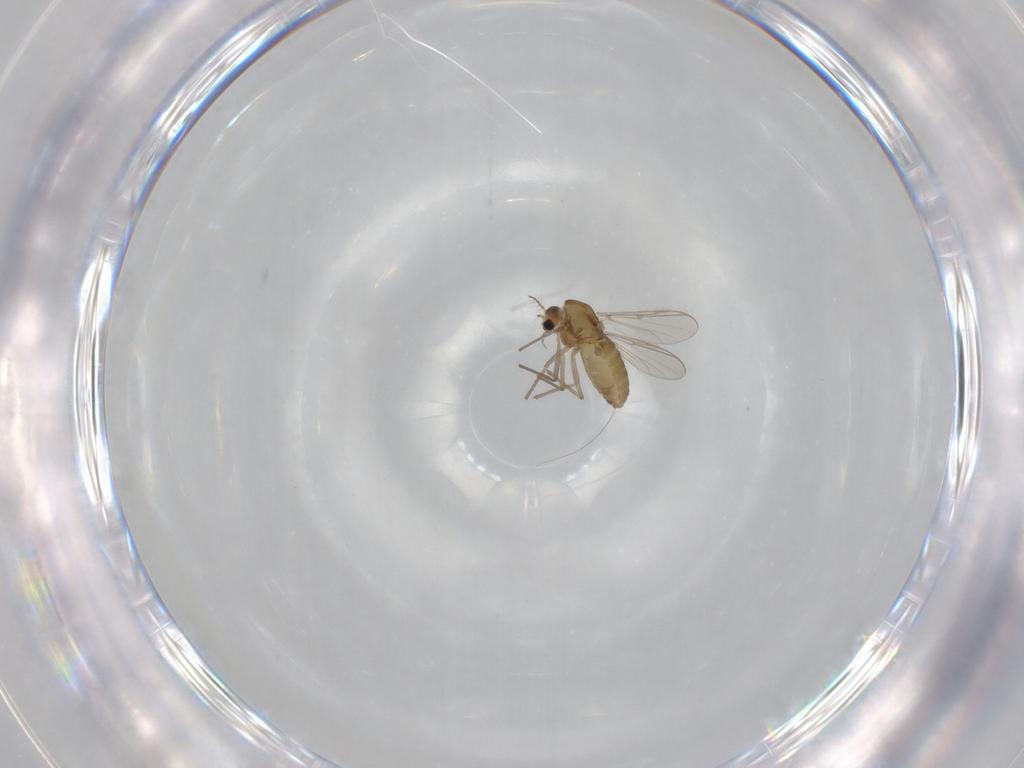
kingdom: Animalia
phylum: Arthropoda
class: Insecta
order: Diptera
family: Chironomidae
